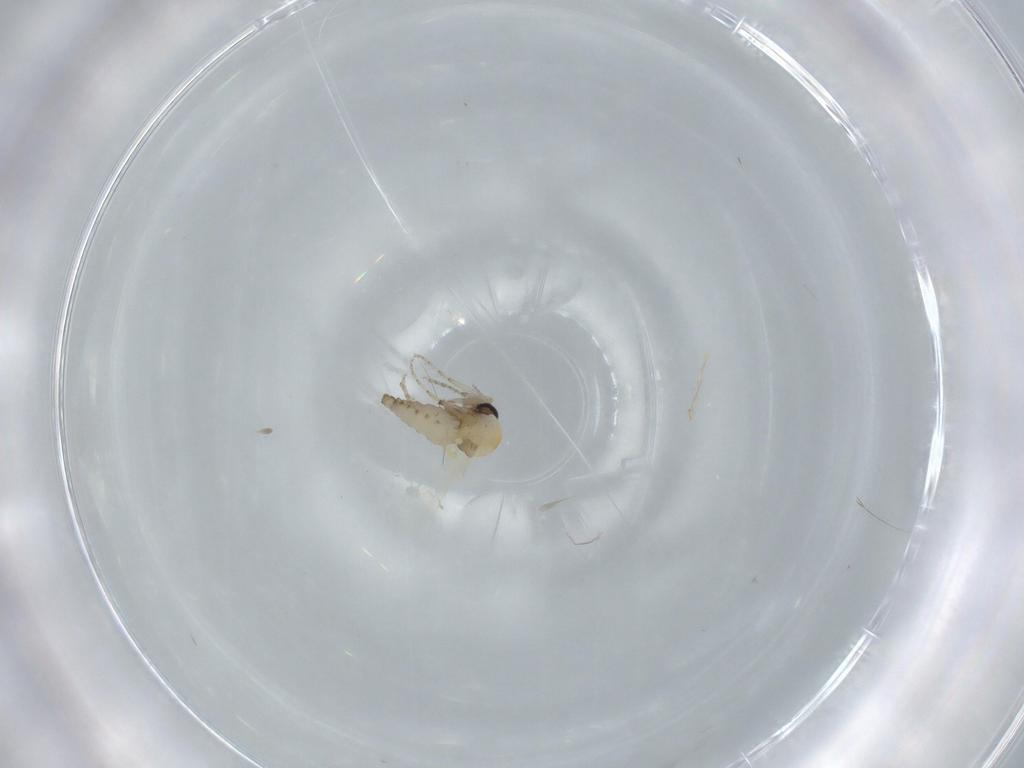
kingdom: Animalia
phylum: Arthropoda
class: Insecta
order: Diptera
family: Ceratopogonidae
